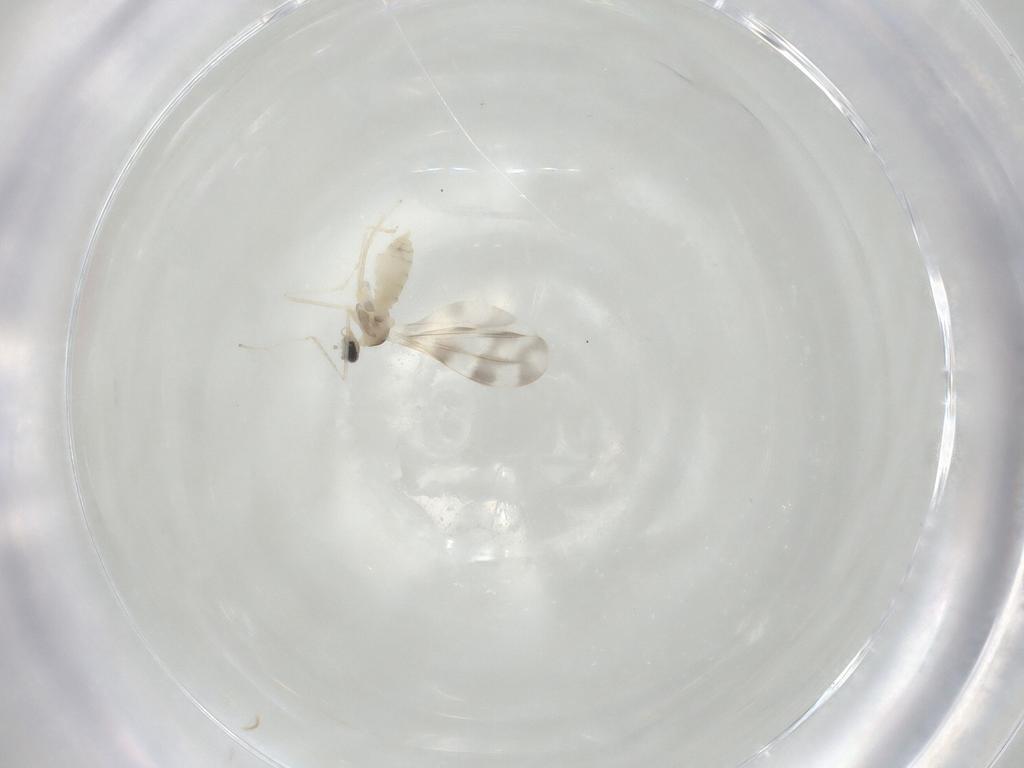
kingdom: Animalia
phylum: Arthropoda
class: Insecta
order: Diptera
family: Cecidomyiidae
